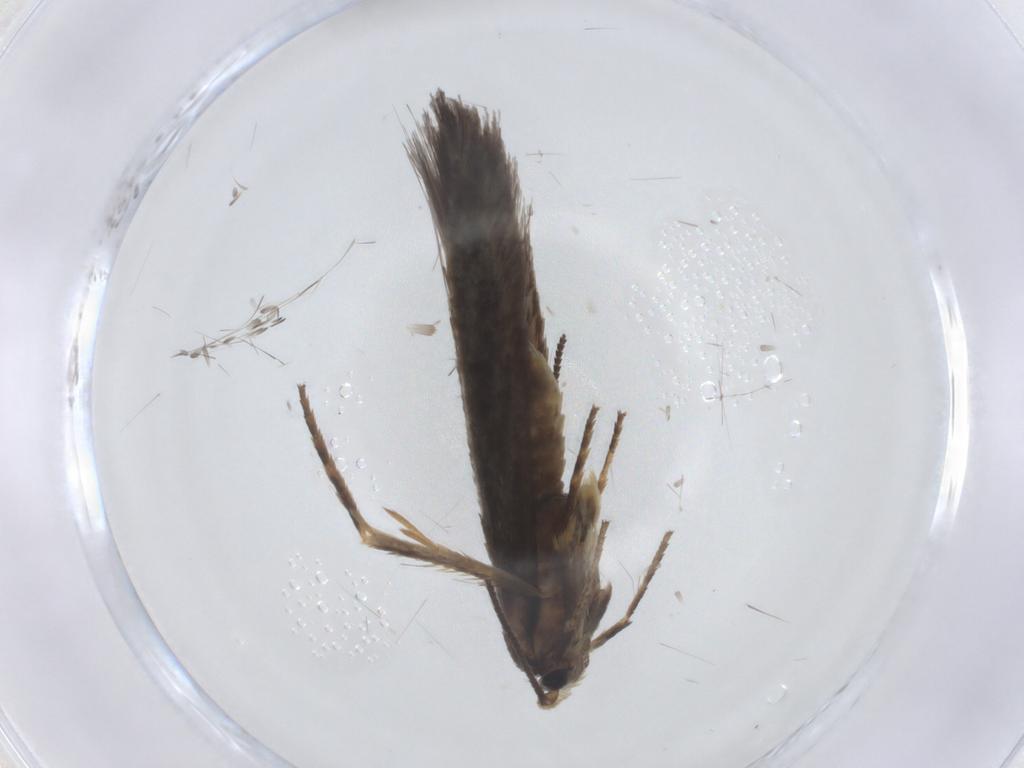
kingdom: Animalia
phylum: Arthropoda
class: Insecta
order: Lepidoptera
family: Nepticulidae
